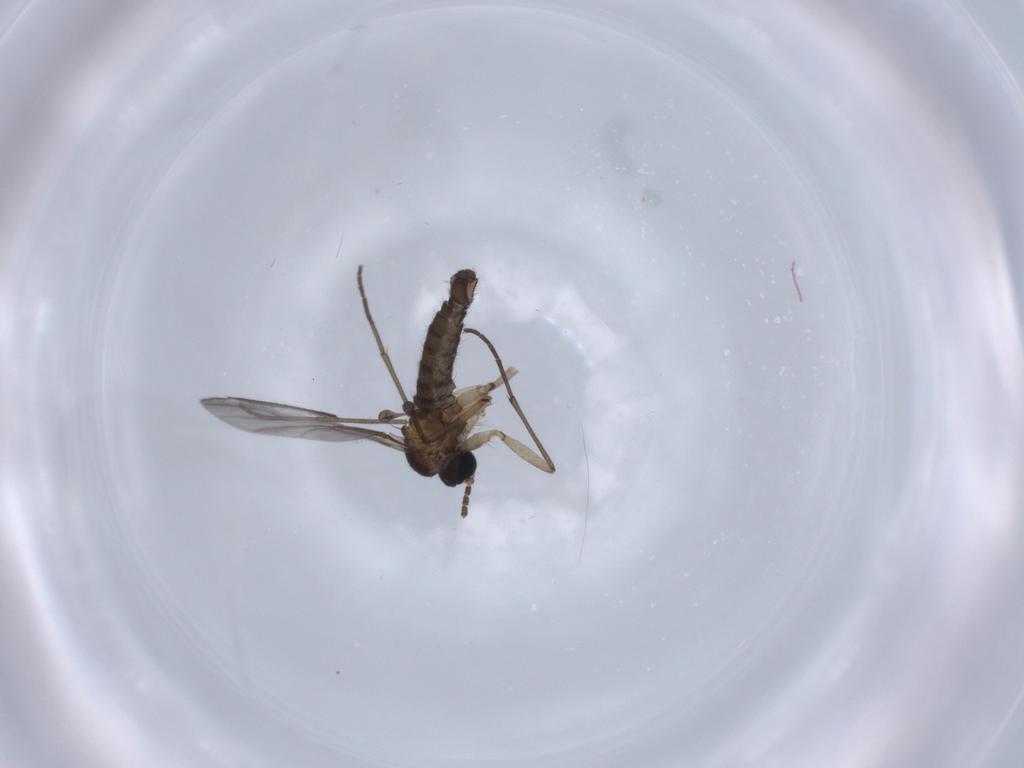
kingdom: Animalia
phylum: Arthropoda
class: Insecta
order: Diptera
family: Sciaridae
